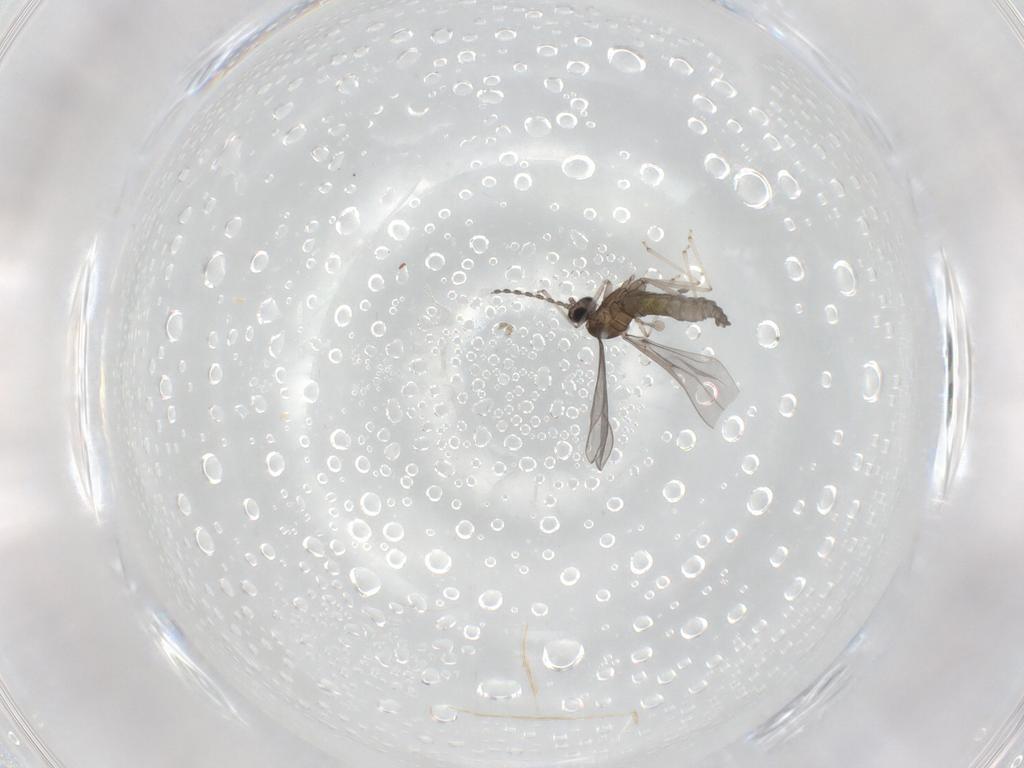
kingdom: Animalia
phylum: Arthropoda
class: Insecta
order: Diptera
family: Cecidomyiidae
